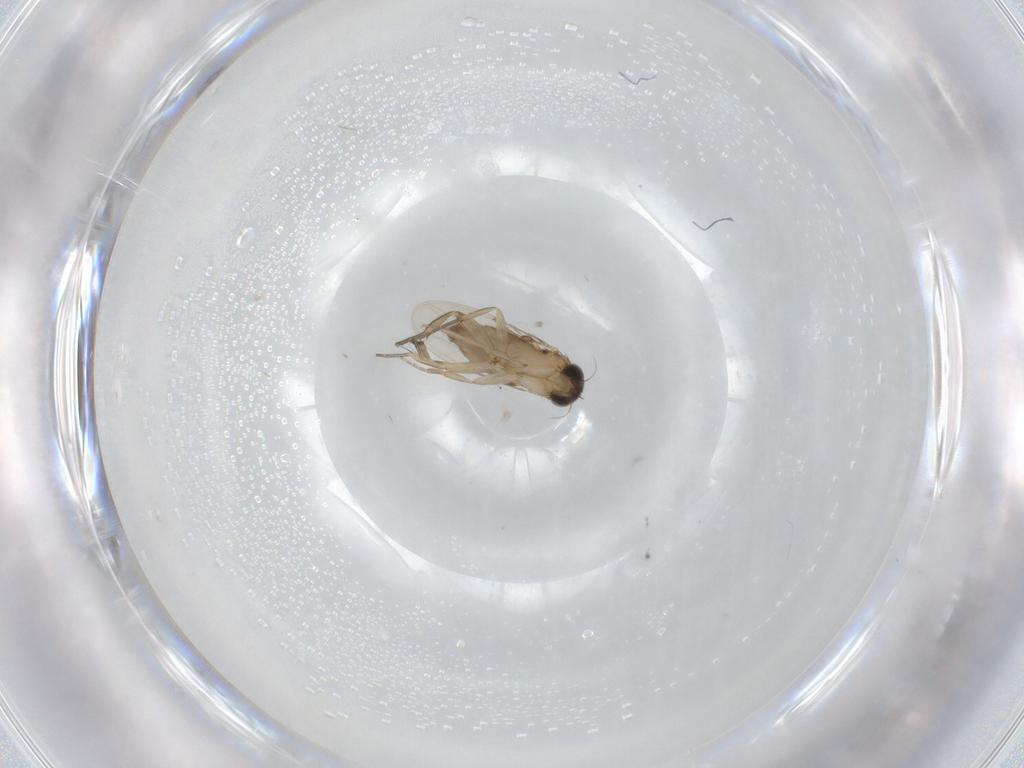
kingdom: Animalia
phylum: Arthropoda
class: Insecta
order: Diptera
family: Phoridae
